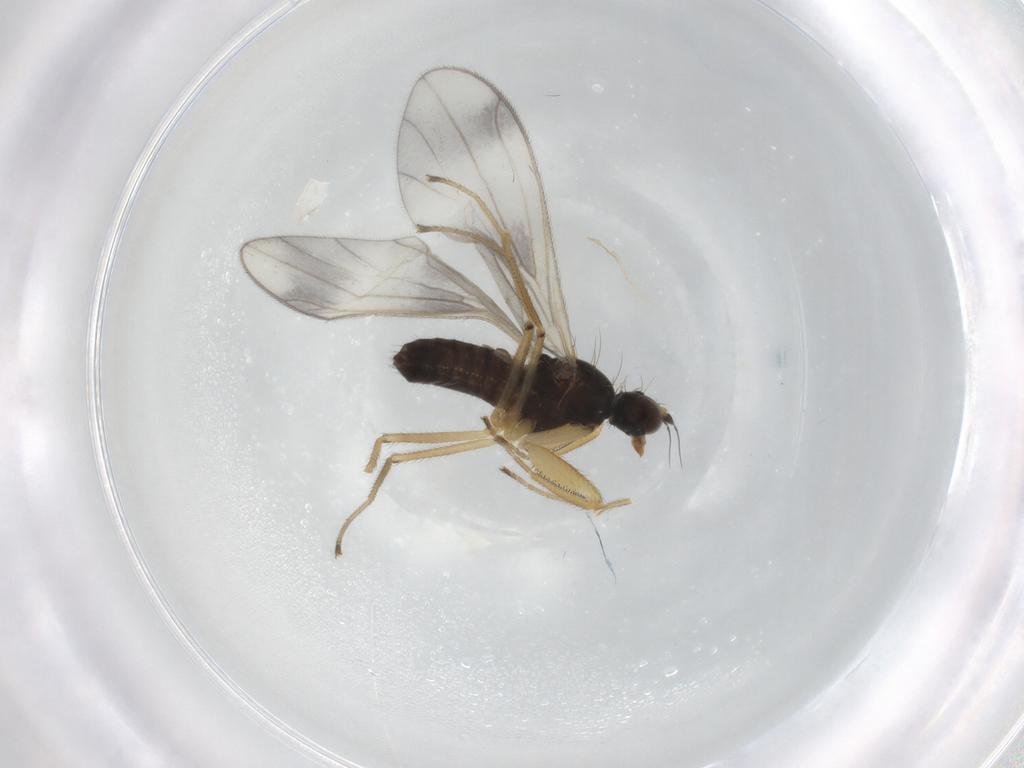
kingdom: Animalia
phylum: Arthropoda
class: Insecta
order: Diptera
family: Chironomidae
